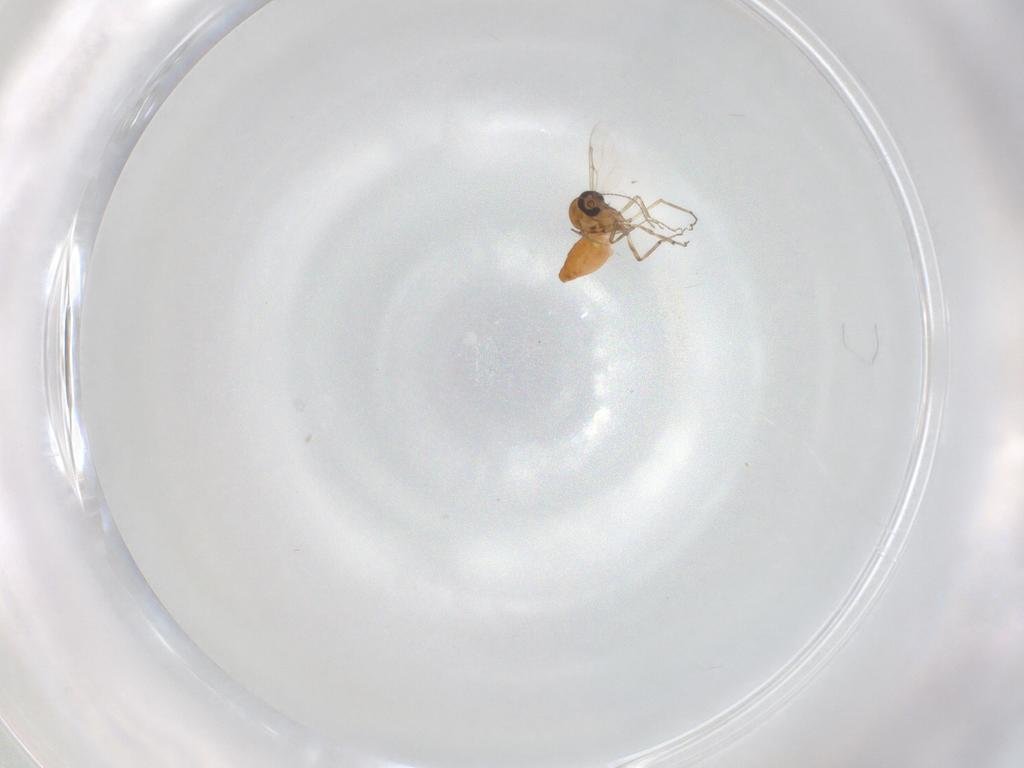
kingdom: Animalia
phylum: Arthropoda
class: Insecta
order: Diptera
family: Ceratopogonidae
